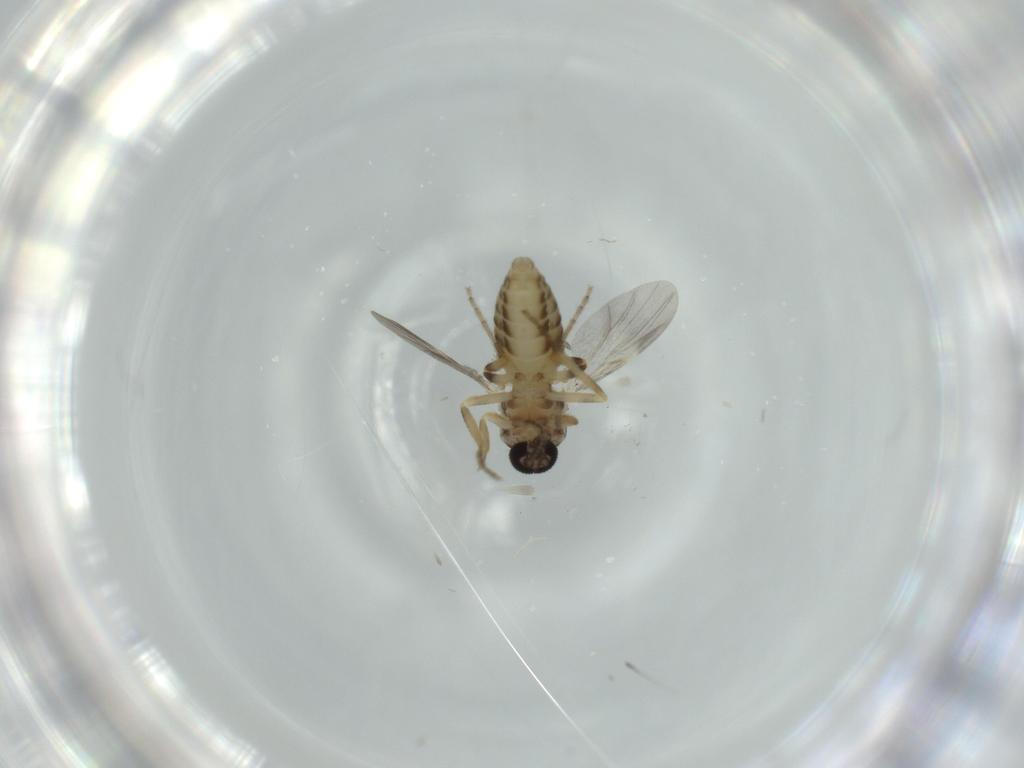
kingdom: Animalia
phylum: Arthropoda
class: Insecta
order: Diptera
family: Ceratopogonidae
